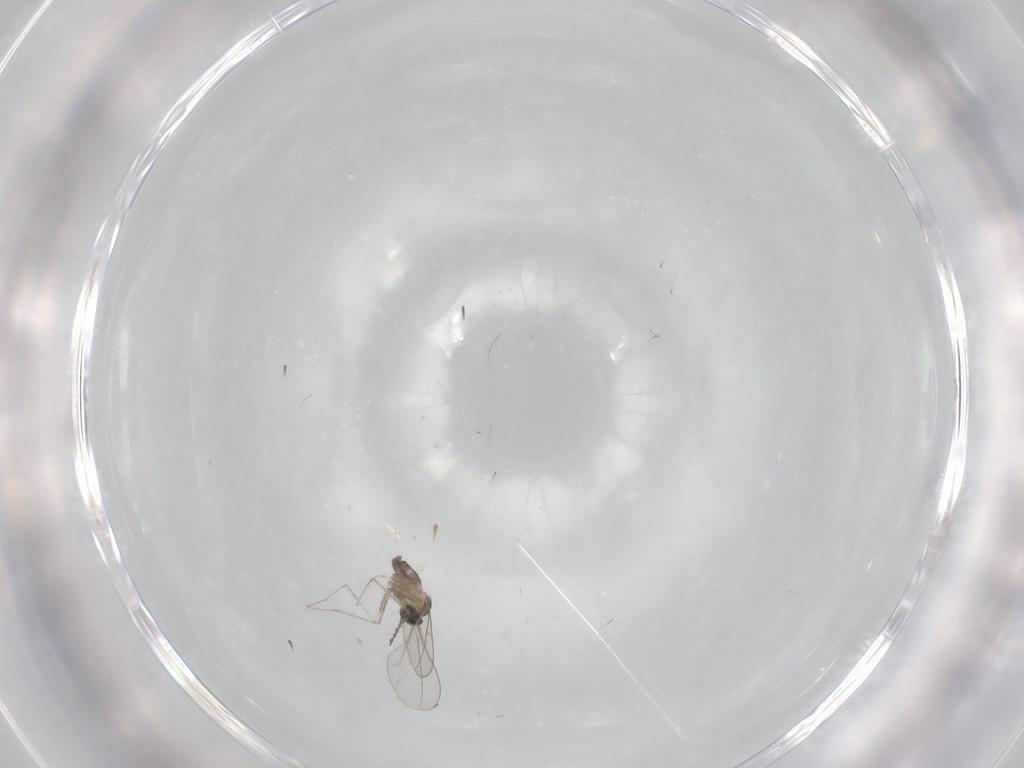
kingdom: Animalia
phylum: Arthropoda
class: Insecta
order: Diptera
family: Cecidomyiidae
